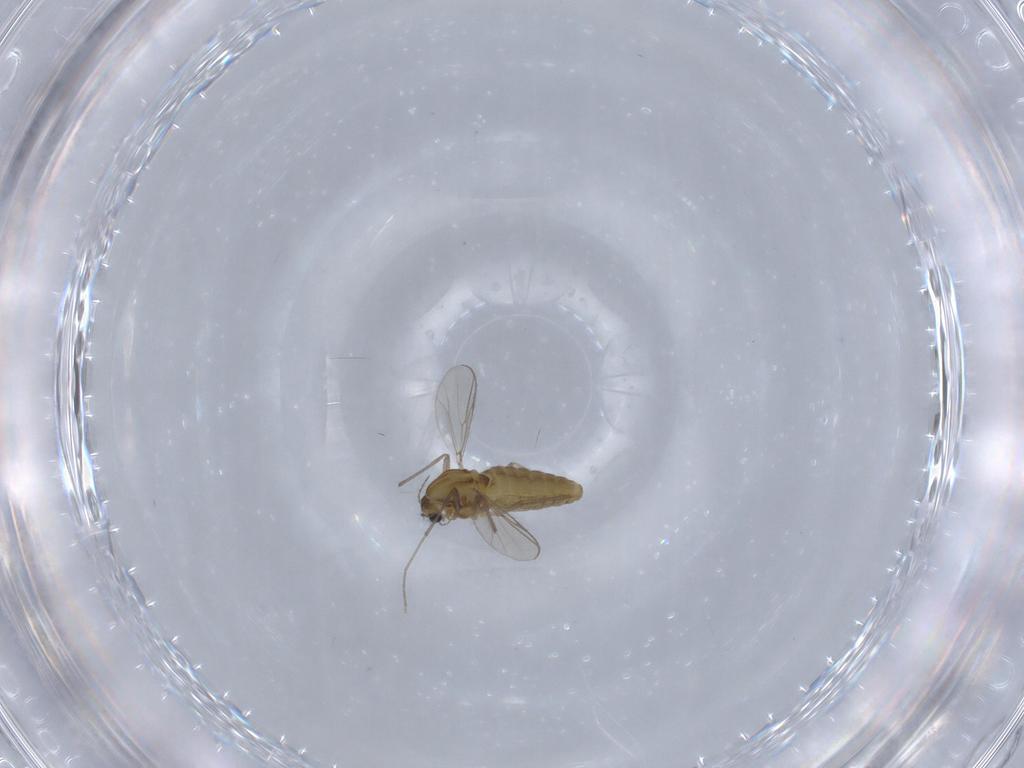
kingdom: Animalia
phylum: Arthropoda
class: Insecta
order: Diptera
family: Chironomidae
